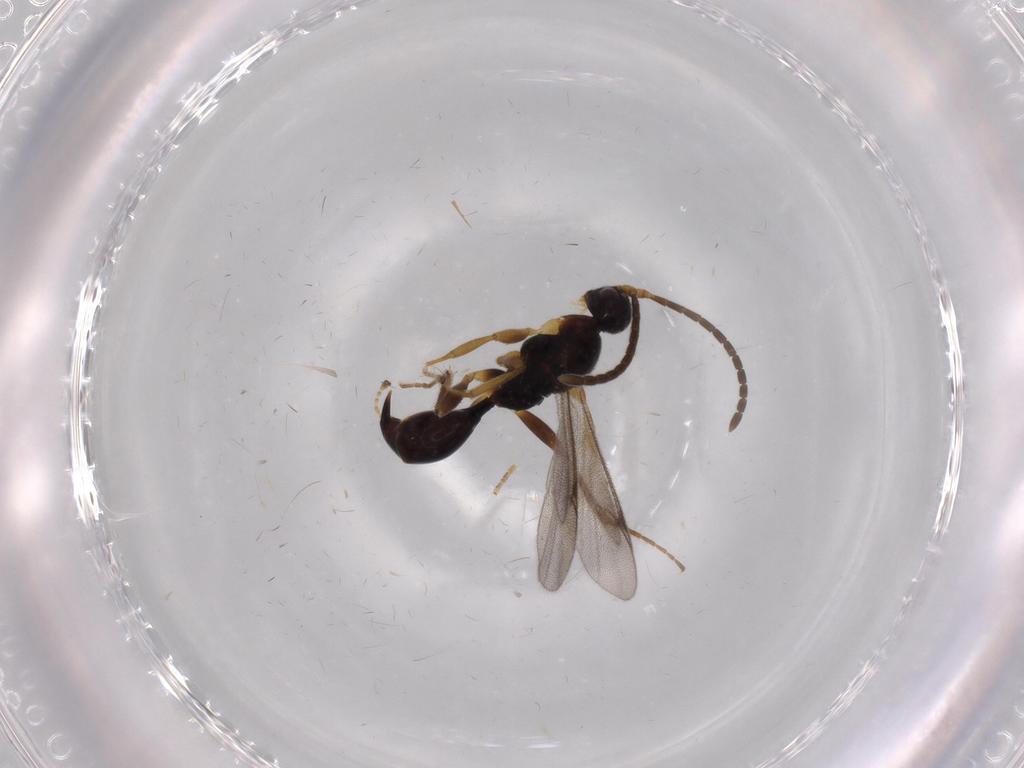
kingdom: Animalia
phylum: Arthropoda
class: Insecta
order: Hymenoptera
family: Proctotrupidae
